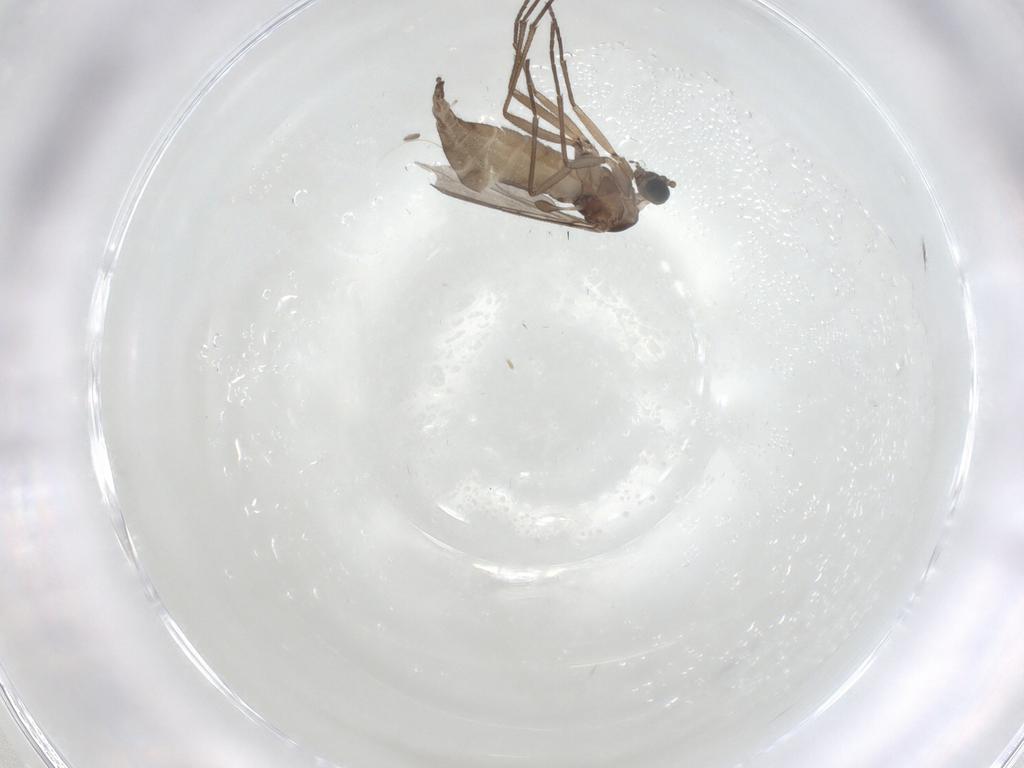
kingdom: Animalia
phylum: Arthropoda
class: Insecta
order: Diptera
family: Sciaridae
